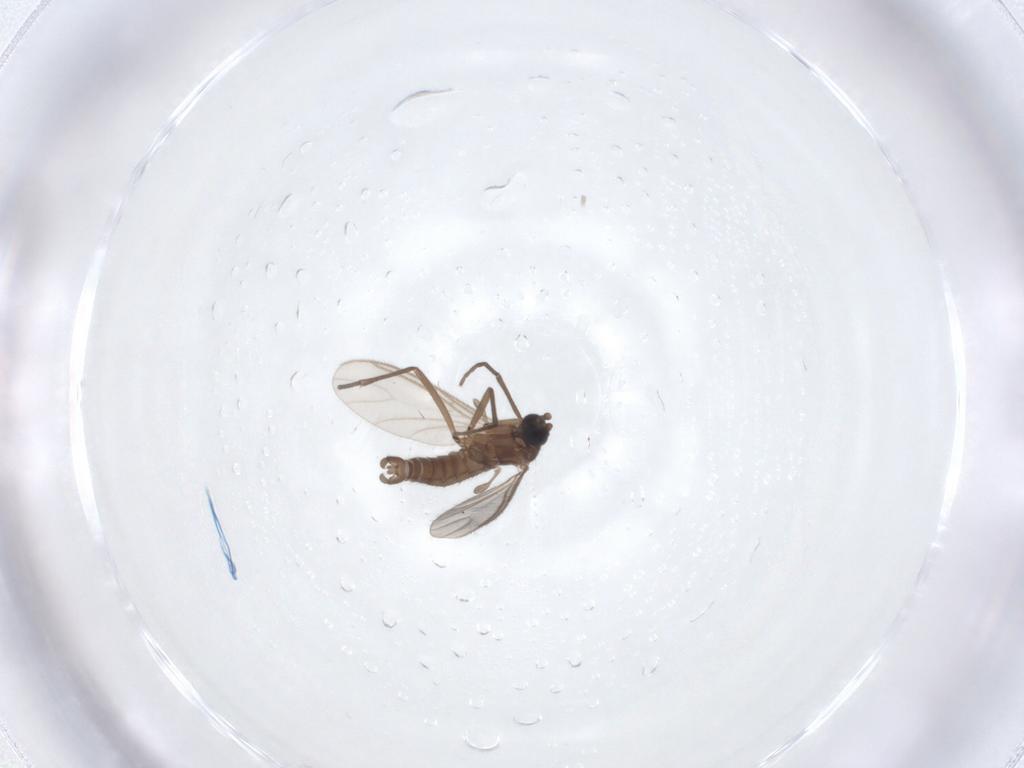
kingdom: Animalia
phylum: Arthropoda
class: Insecta
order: Diptera
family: Sciaridae
